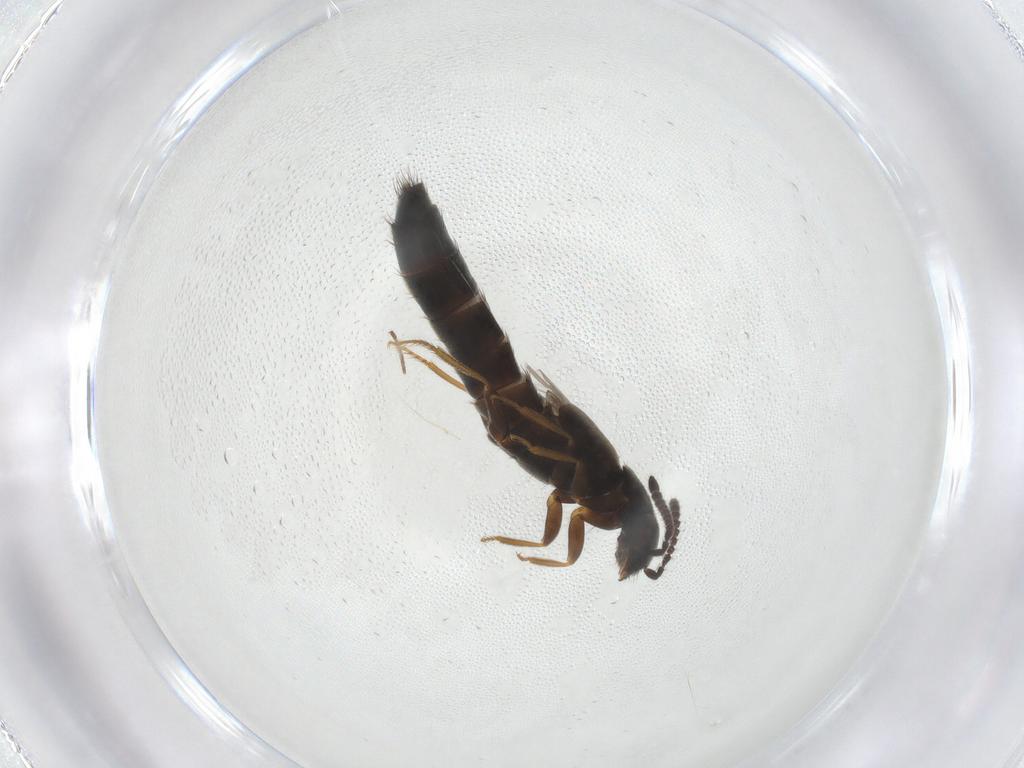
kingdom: Animalia
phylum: Arthropoda
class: Insecta
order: Coleoptera
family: Staphylinidae
